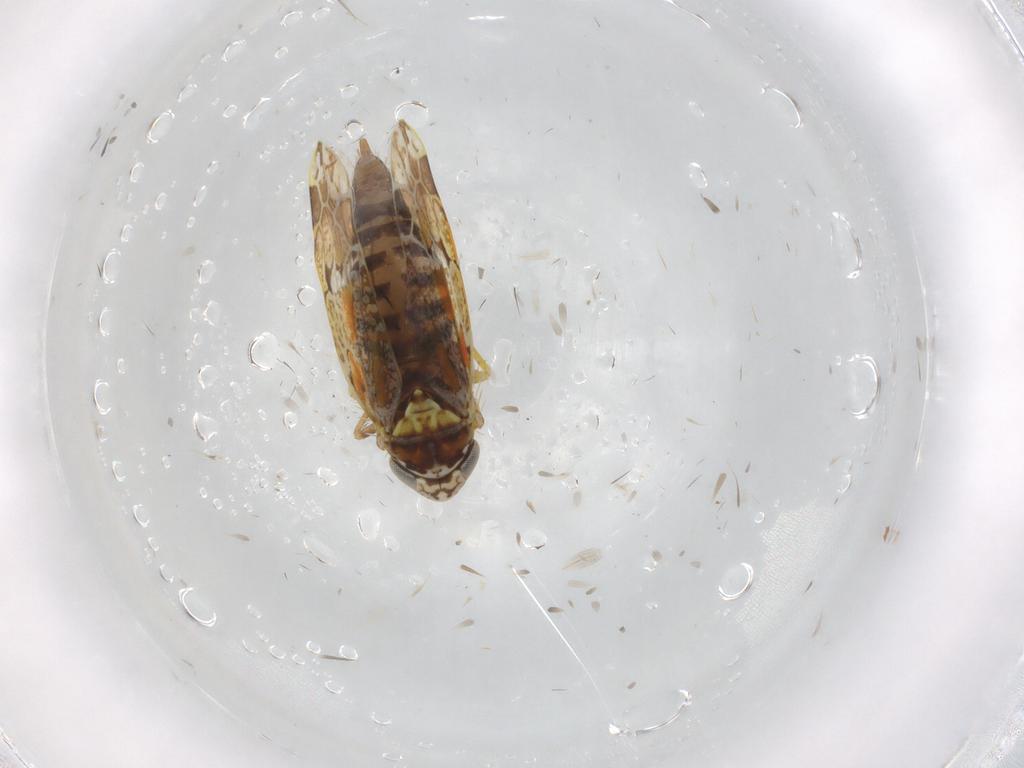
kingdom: Animalia
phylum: Arthropoda
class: Insecta
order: Hemiptera
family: Cicadellidae
